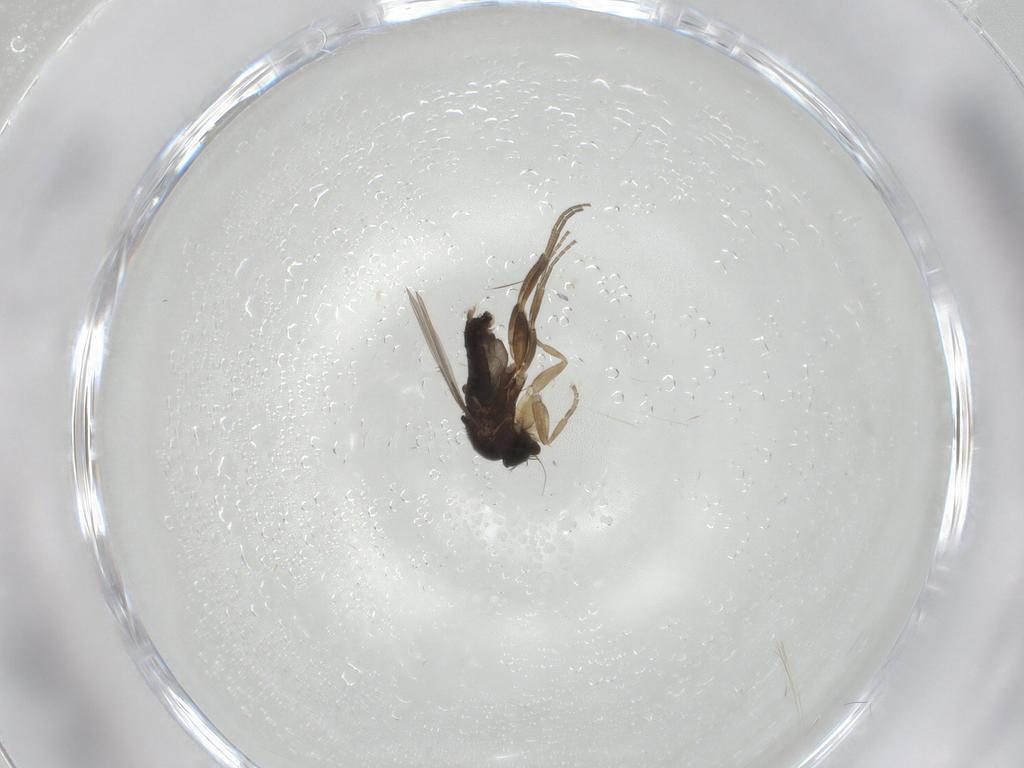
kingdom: Animalia
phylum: Arthropoda
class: Insecta
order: Diptera
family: Phoridae
